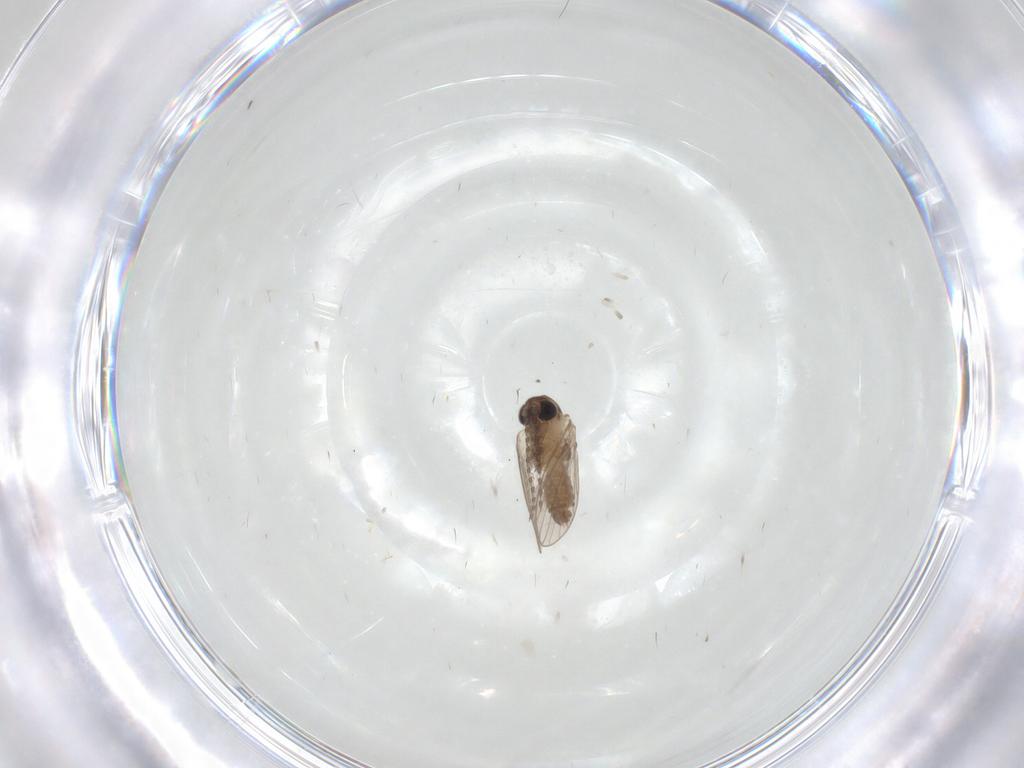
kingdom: Animalia
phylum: Arthropoda
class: Insecta
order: Diptera
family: Psychodidae
